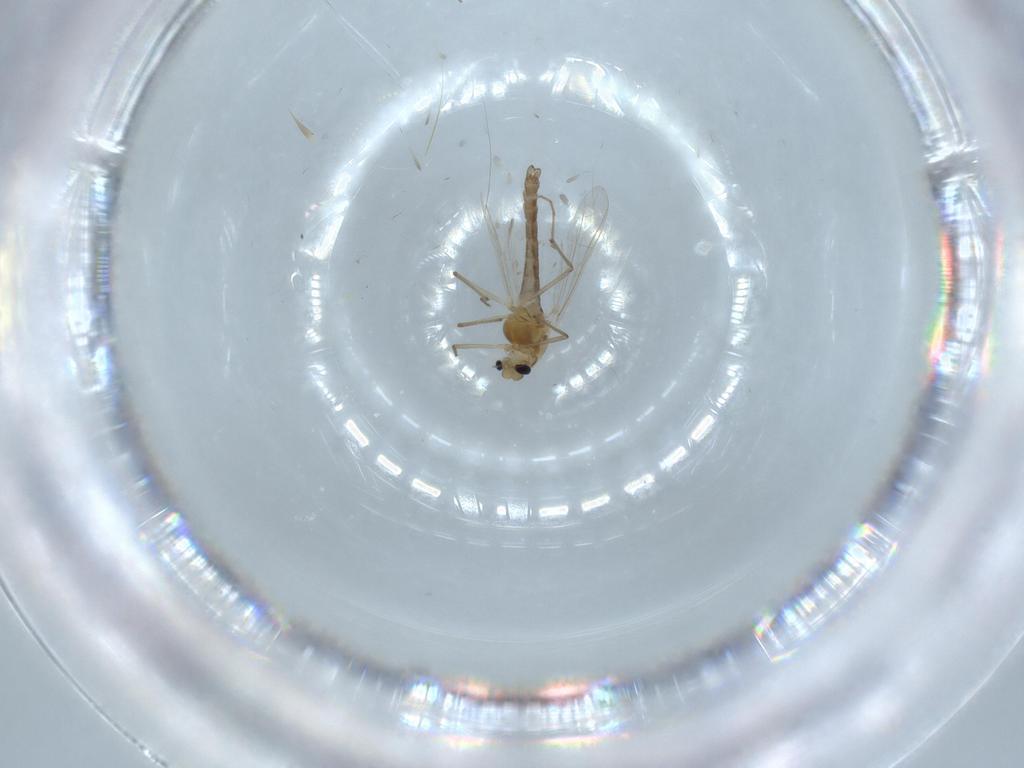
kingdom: Animalia
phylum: Arthropoda
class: Insecta
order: Diptera
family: Chironomidae
